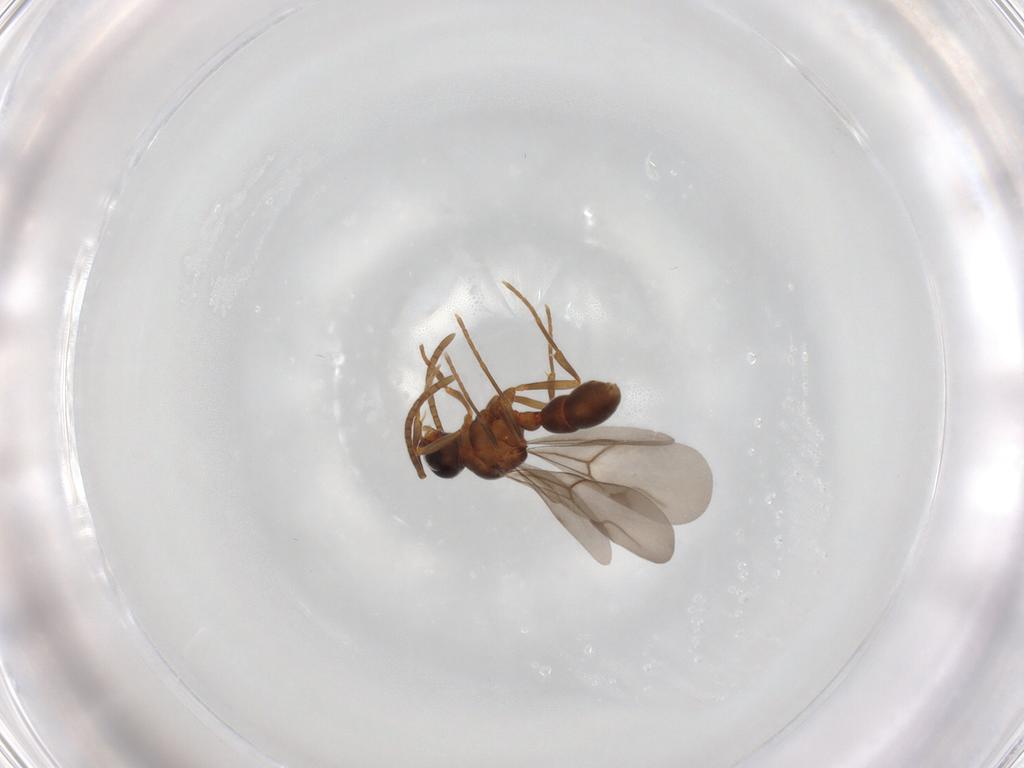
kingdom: Animalia
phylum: Arthropoda
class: Insecta
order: Hymenoptera
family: Formicidae
